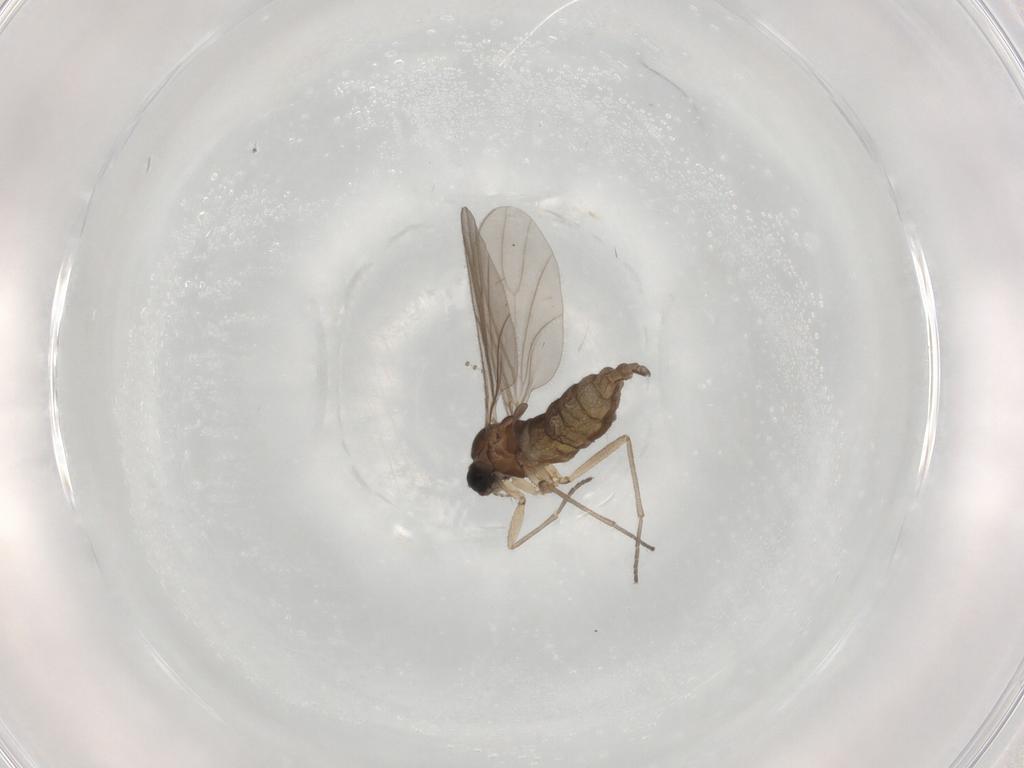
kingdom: Animalia
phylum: Arthropoda
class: Insecta
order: Diptera
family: Sciaridae
